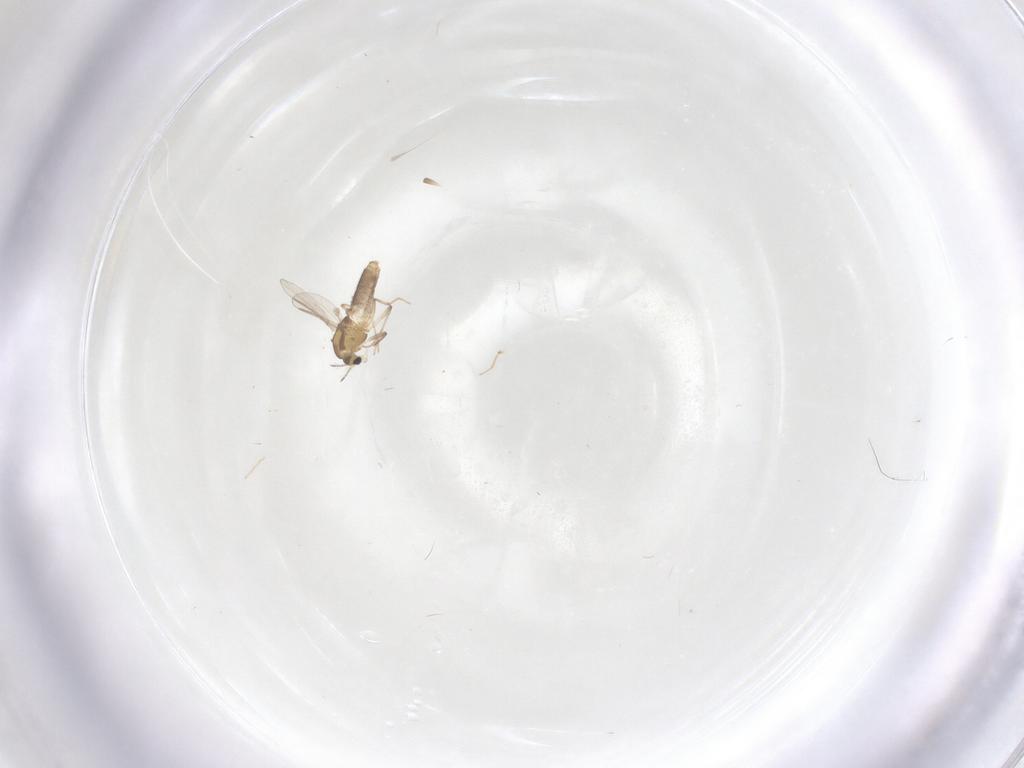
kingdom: Animalia
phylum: Arthropoda
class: Insecta
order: Diptera
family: Chironomidae
